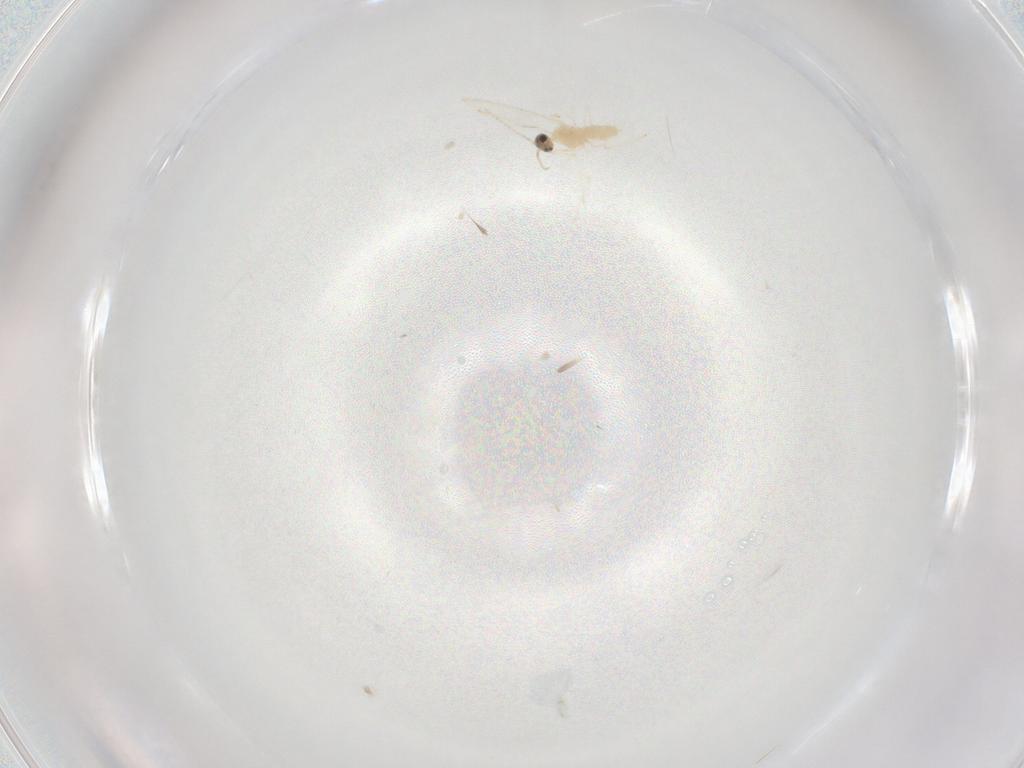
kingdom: Animalia
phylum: Arthropoda
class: Insecta
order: Diptera
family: Cecidomyiidae
